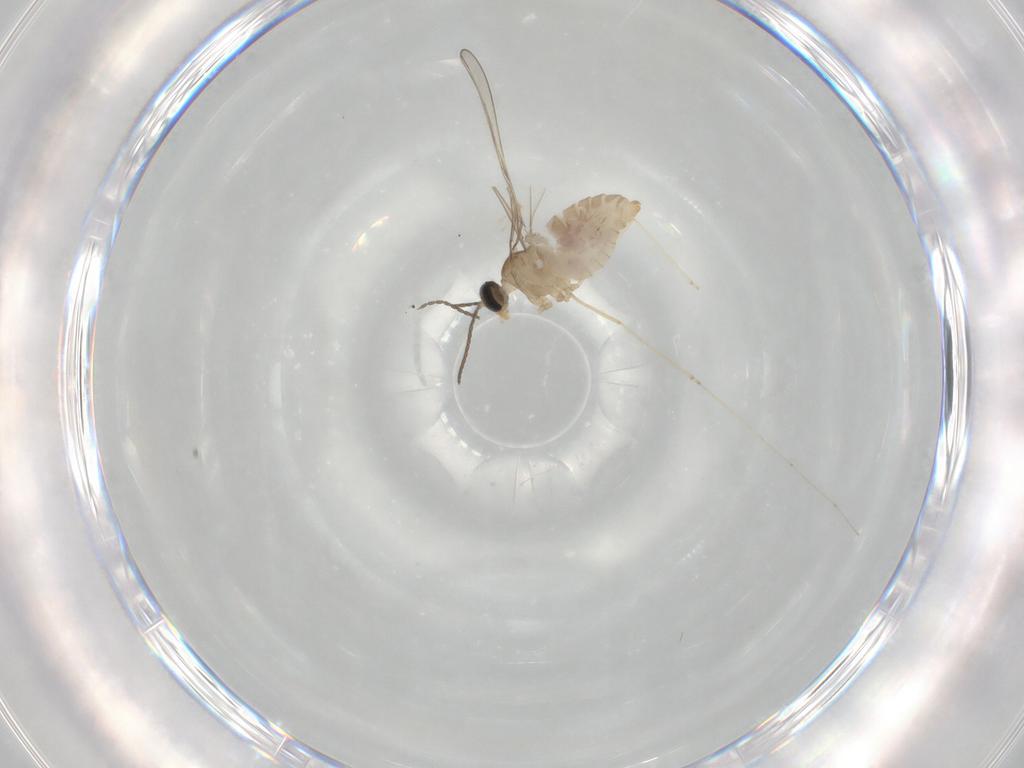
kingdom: Animalia
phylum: Arthropoda
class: Insecta
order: Diptera
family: Cecidomyiidae
